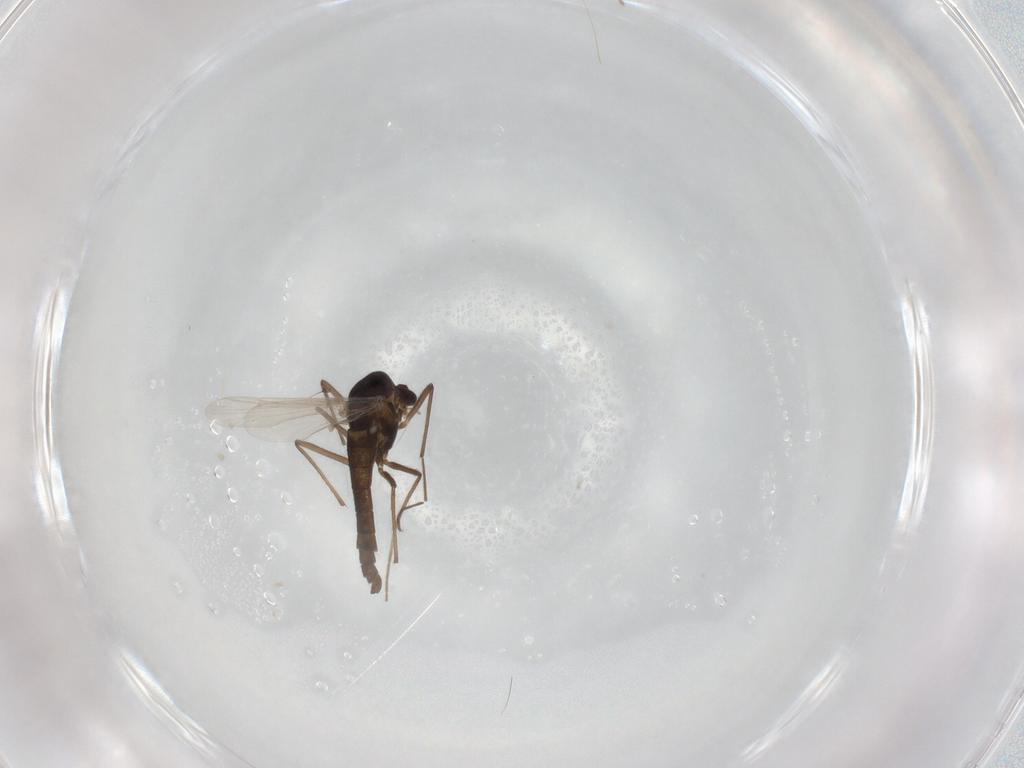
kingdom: Animalia
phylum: Arthropoda
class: Insecta
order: Diptera
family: Chironomidae
